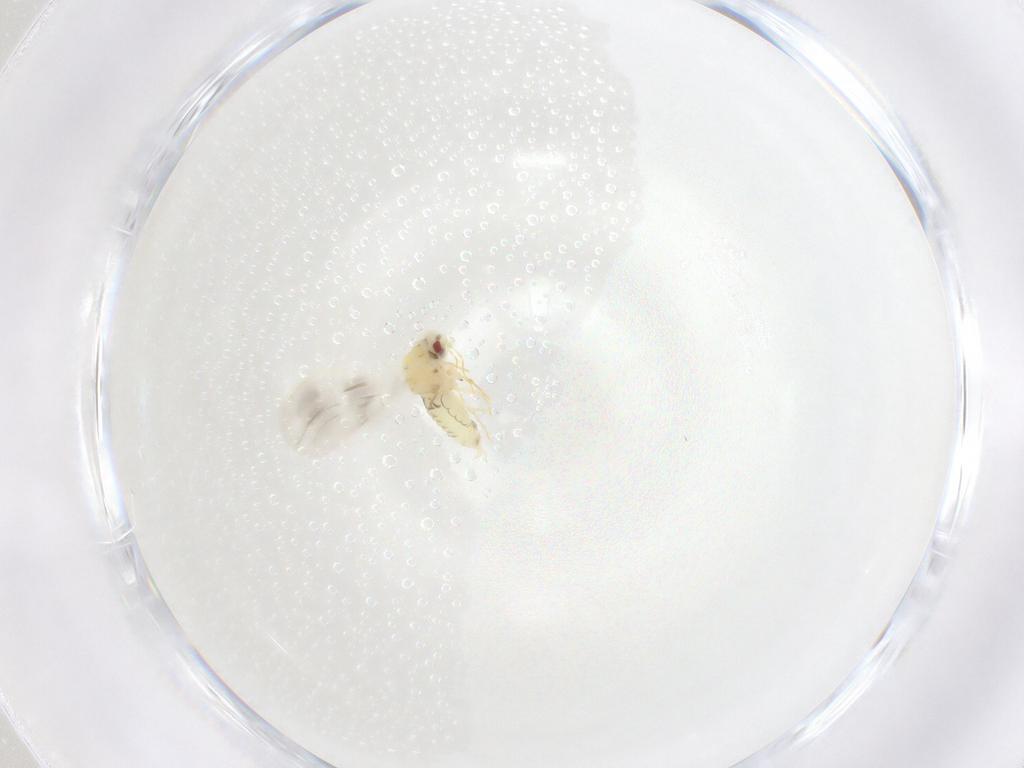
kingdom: Animalia
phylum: Arthropoda
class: Insecta
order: Hemiptera
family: Aleyrodidae
